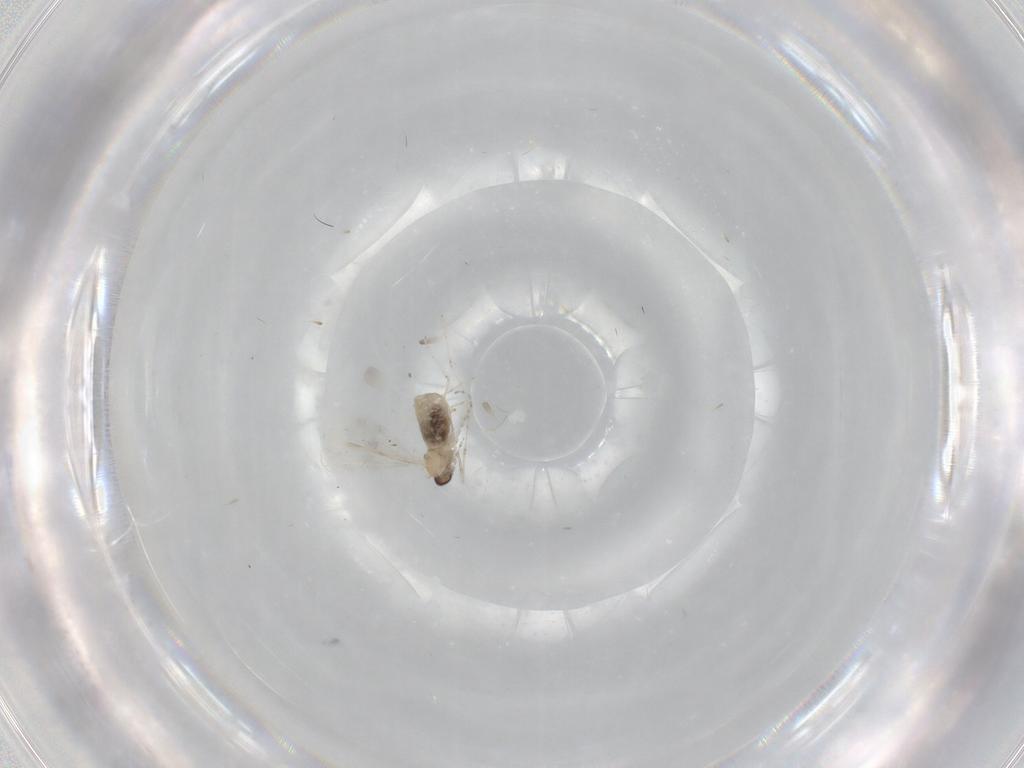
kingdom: Animalia
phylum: Arthropoda
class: Insecta
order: Diptera
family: Cecidomyiidae
